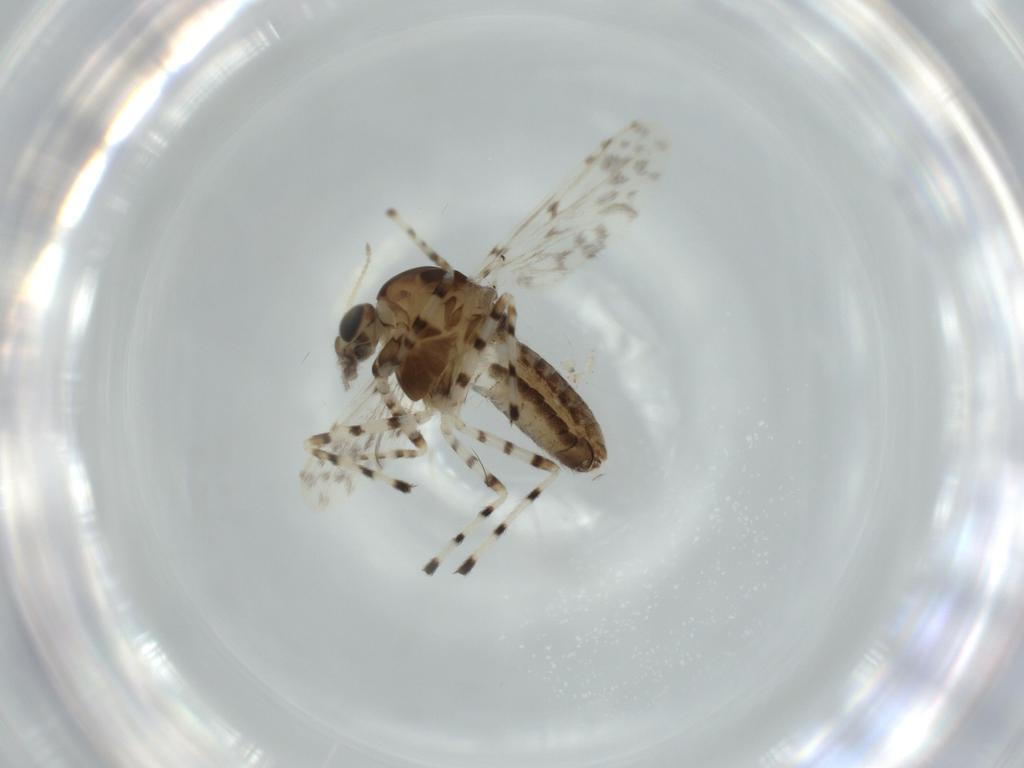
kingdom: Animalia
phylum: Arthropoda
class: Insecta
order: Diptera
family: Chironomidae
